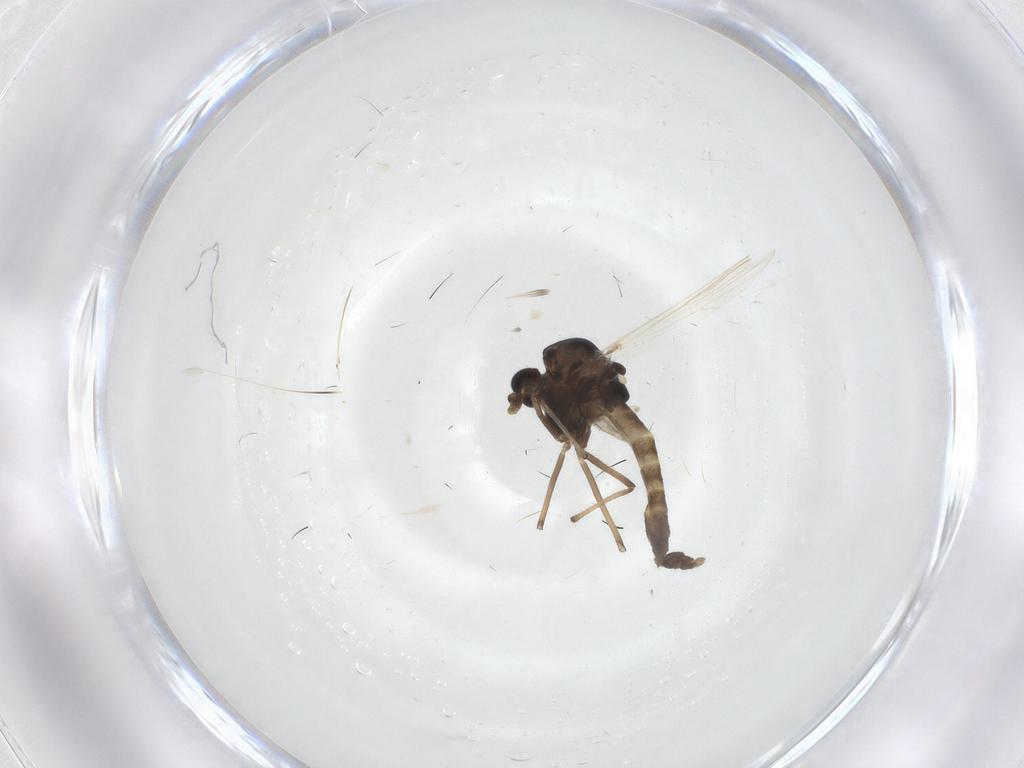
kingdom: Animalia
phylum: Arthropoda
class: Insecta
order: Diptera
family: Chironomidae
